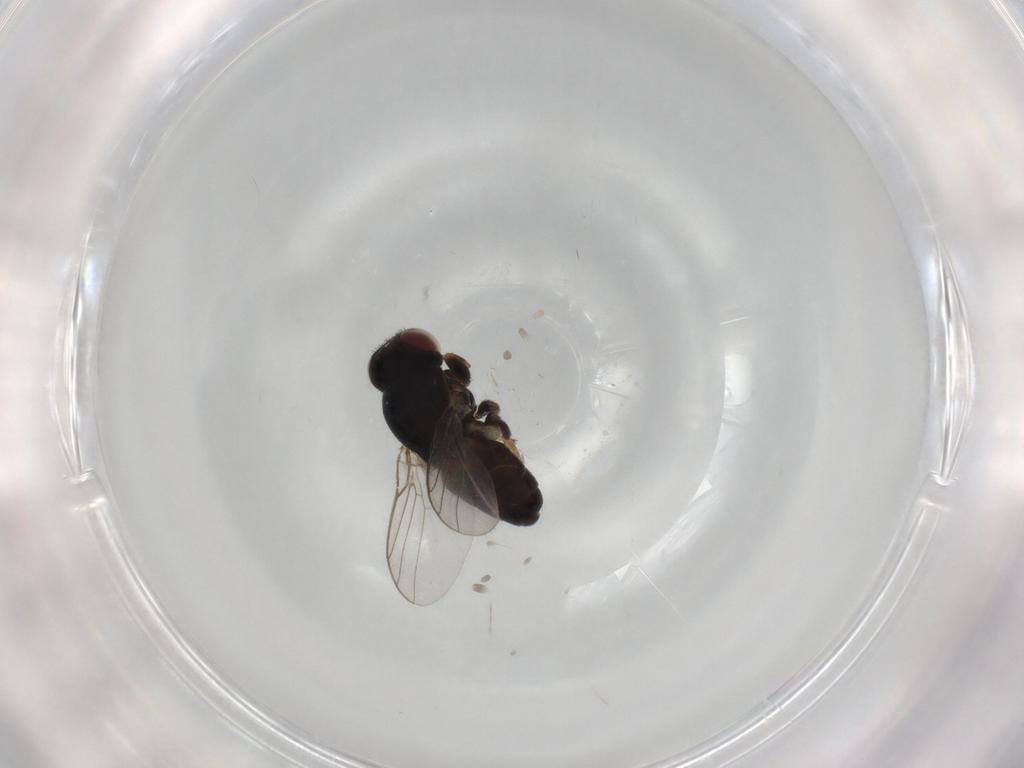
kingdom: Animalia
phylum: Arthropoda
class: Insecta
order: Diptera
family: Chloropidae
